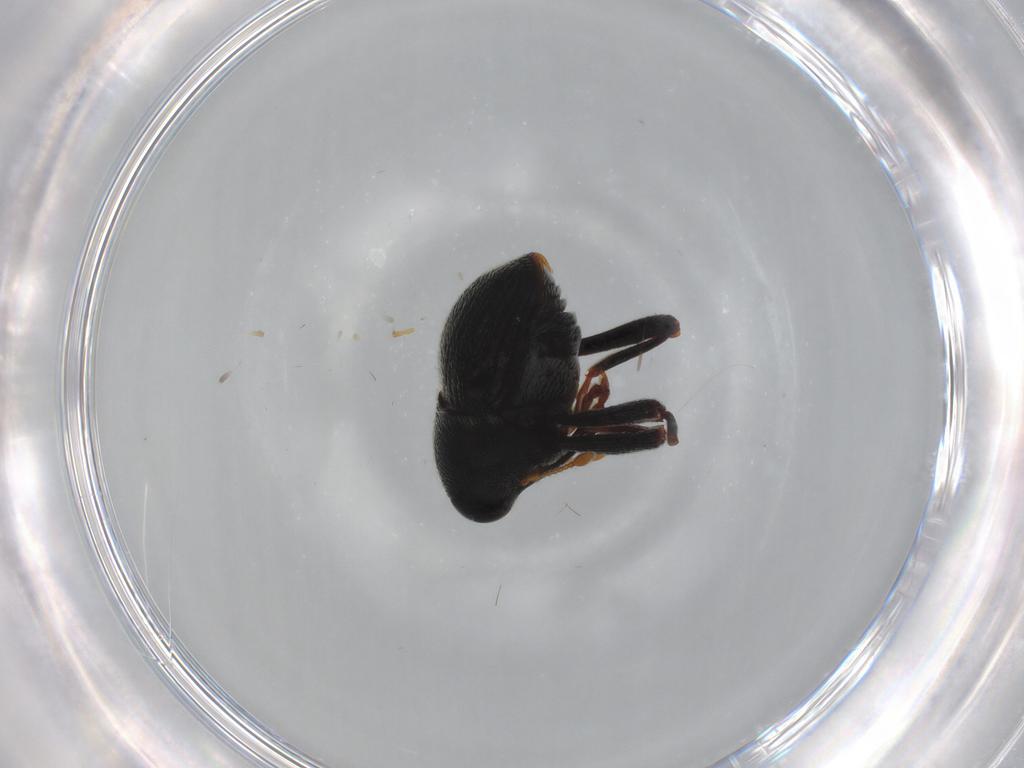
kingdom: Animalia
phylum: Arthropoda
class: Insecta
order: Coleoptera
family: Curculionidae
